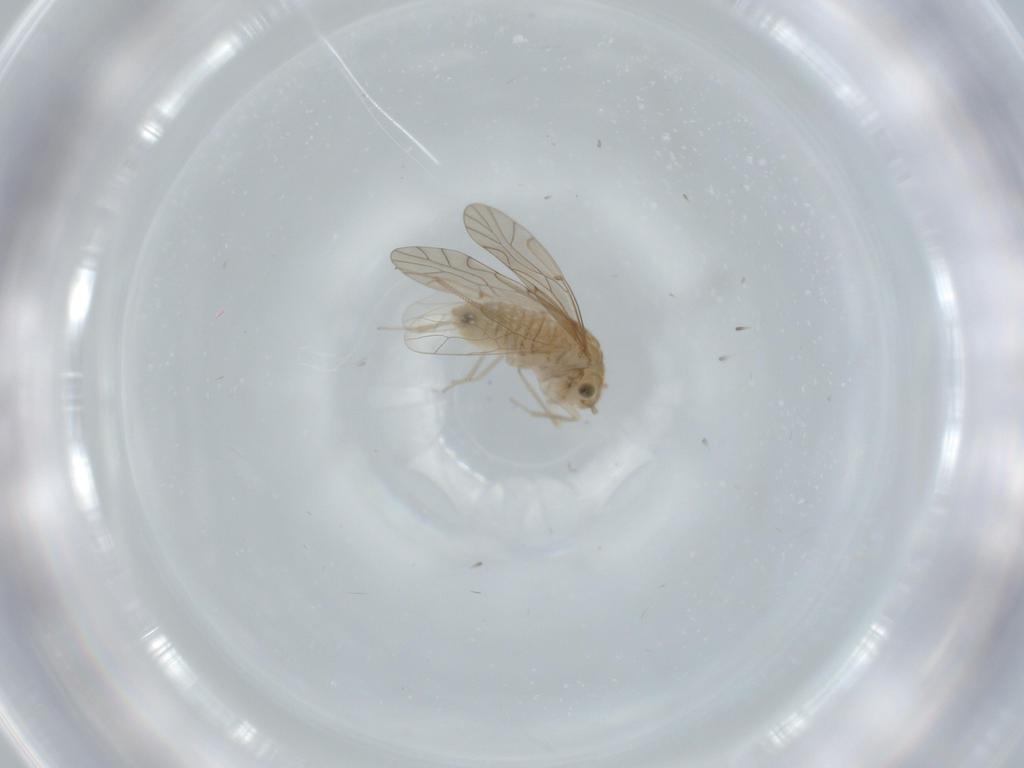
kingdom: Animalia
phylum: Arthropoda
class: Insecta
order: Psocodea
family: Lachesillidae
